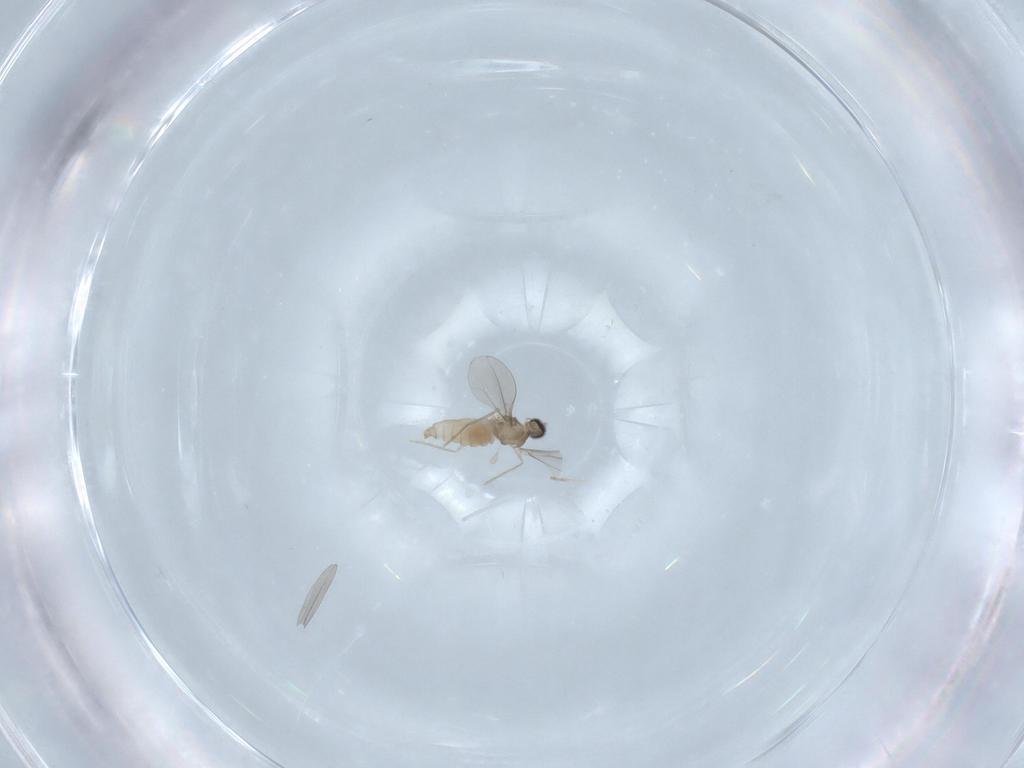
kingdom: Animalia
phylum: Arthropoda
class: Insecta
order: Diptera
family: Cecidomyiidae
